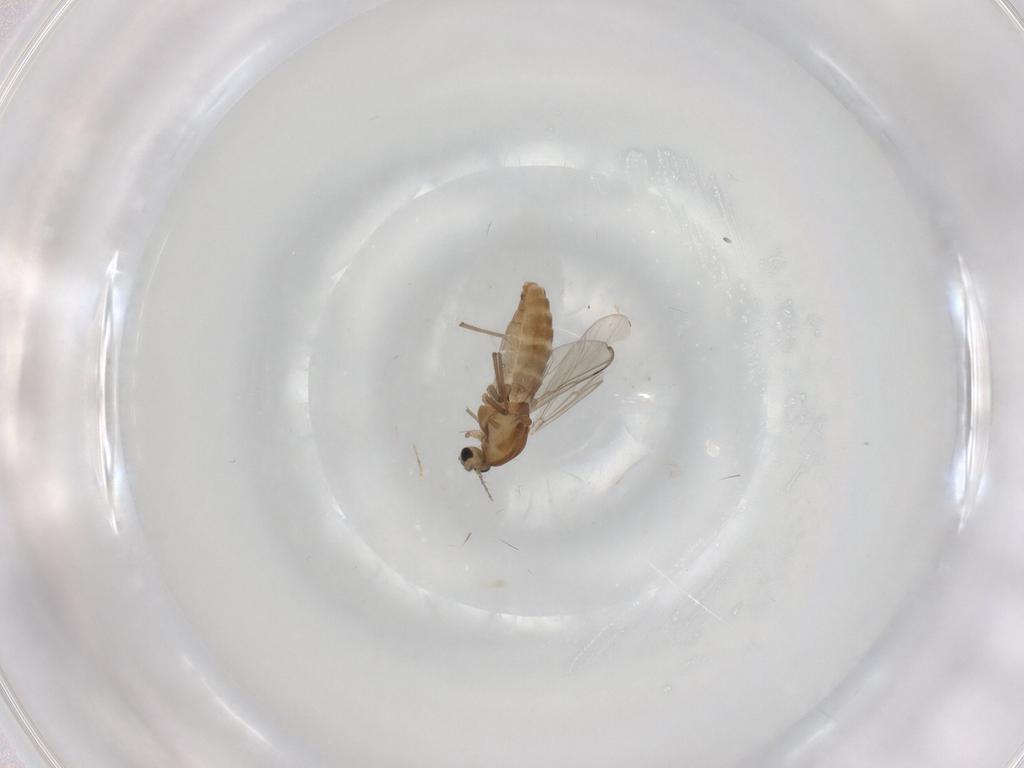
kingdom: Animalia
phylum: Arthropoda
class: Insecta
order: Diptera
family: Chironomidae
